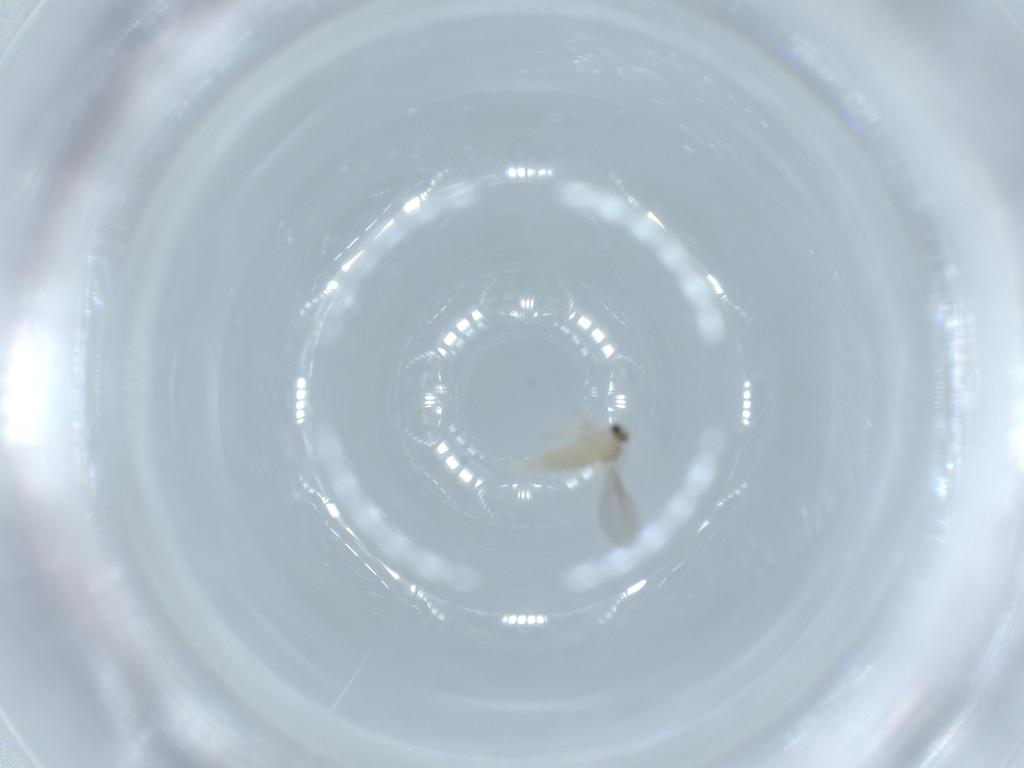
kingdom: Animalia
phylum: Arthropoda
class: Insecta
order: Diptera
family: Cecidomyiidae
